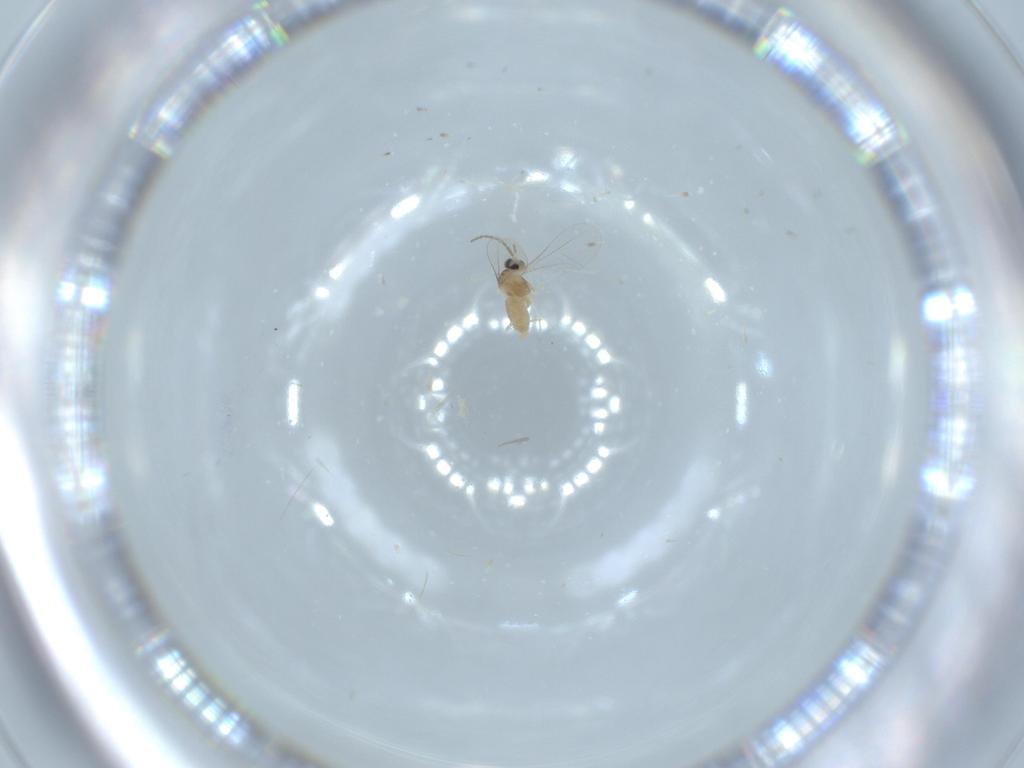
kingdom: Animalia
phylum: Arthropoda
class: Insecta
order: Diptera
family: Cecidomyiidae
